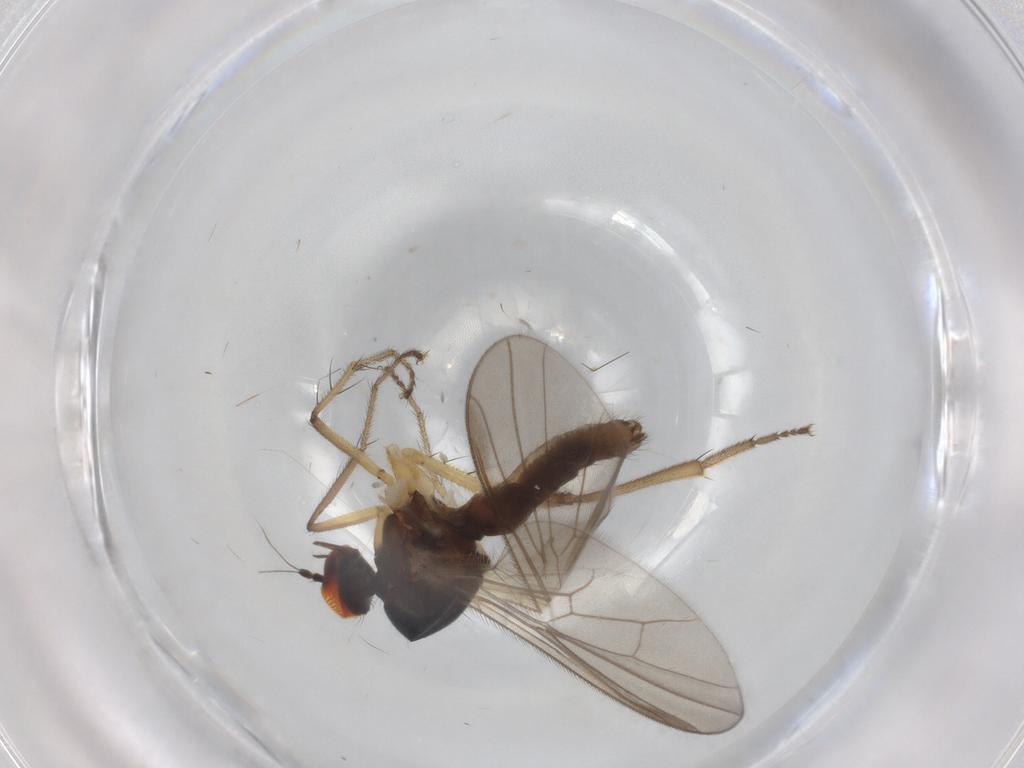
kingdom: Animalia
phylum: Arthropoda
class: Insecta
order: Diptera
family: Hybotidae
